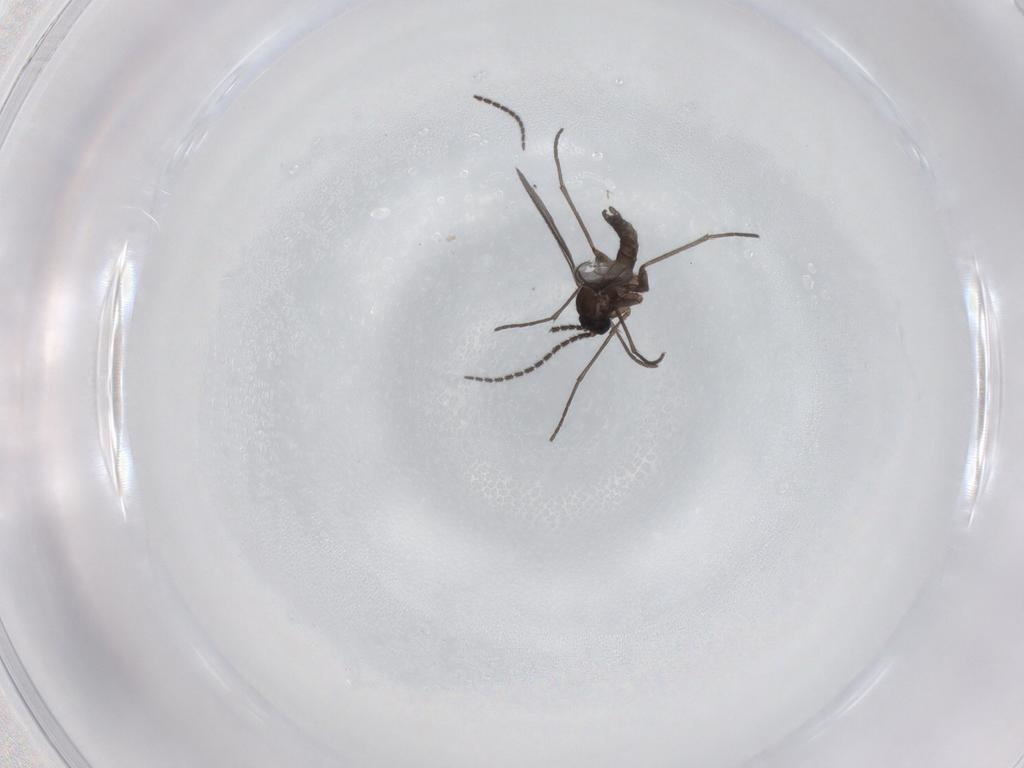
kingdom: Animalia
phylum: Arthropoda
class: Insecta
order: Diptera
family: Sciaridae
